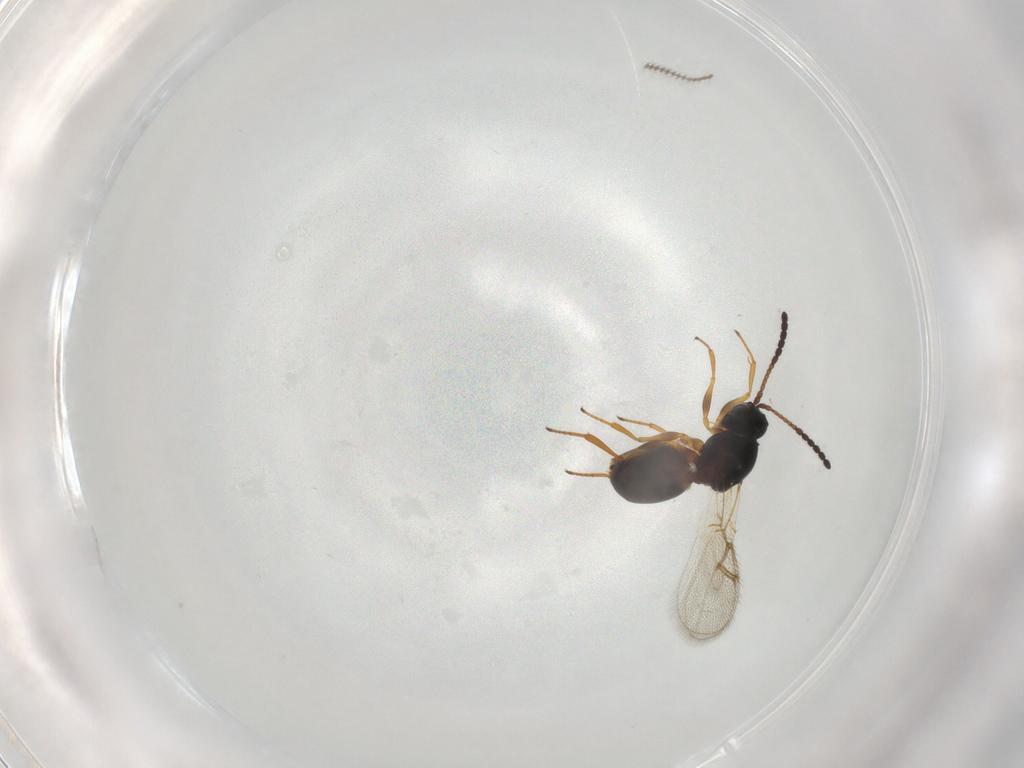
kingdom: Animalia
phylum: Arthropoda
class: Insecta
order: Hymenoptera
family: Figitidae
